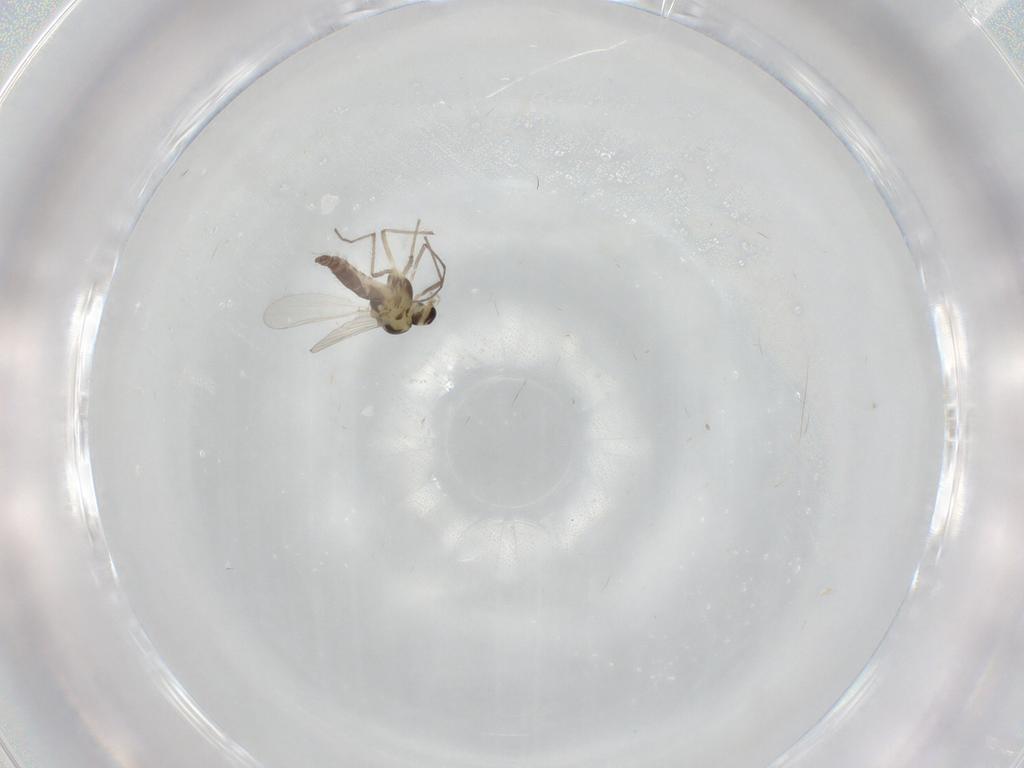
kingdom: Animalia
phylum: Arthropoda
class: Insecta
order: Diptera
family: Chironomidae
